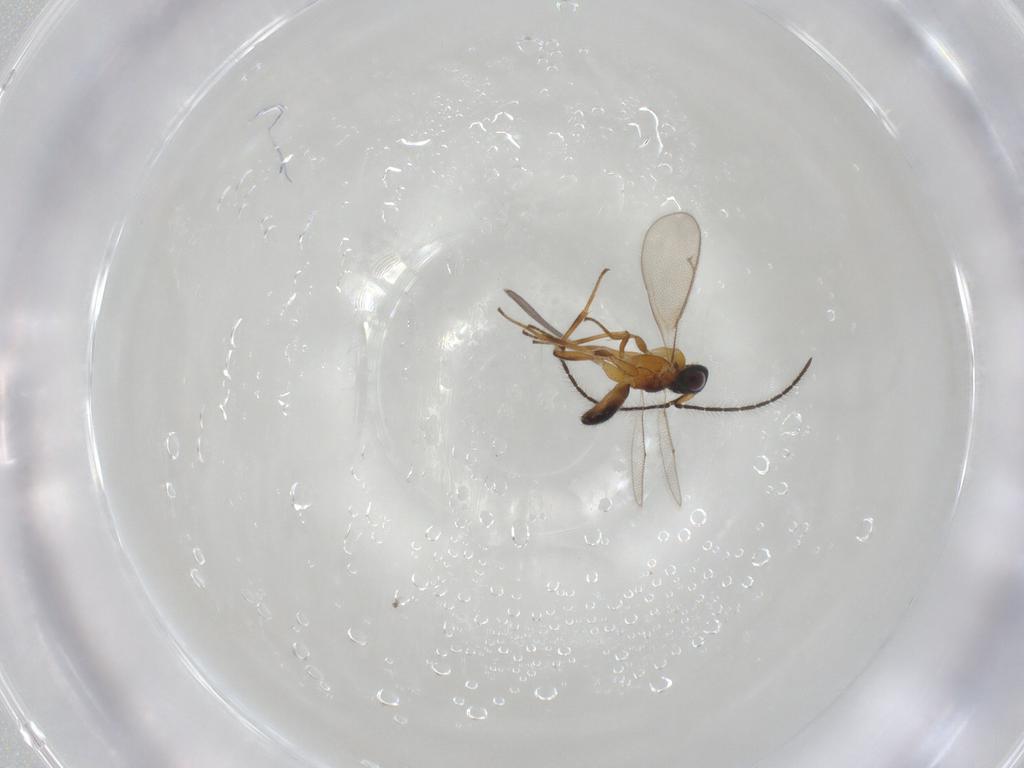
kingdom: Animalia
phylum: Arthropoda
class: Insecta
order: Hymenoptera
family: Eupelmidae
